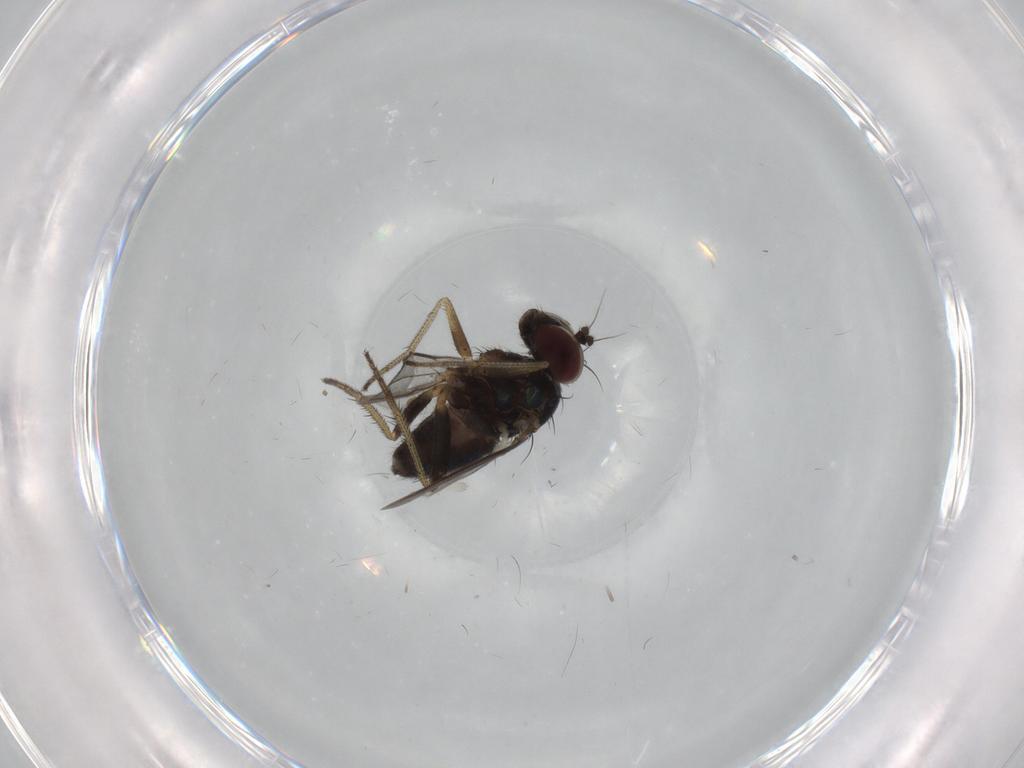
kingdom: Animalia
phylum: Arthropoda
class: Insecta
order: Diptera
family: Dolichopodidae
